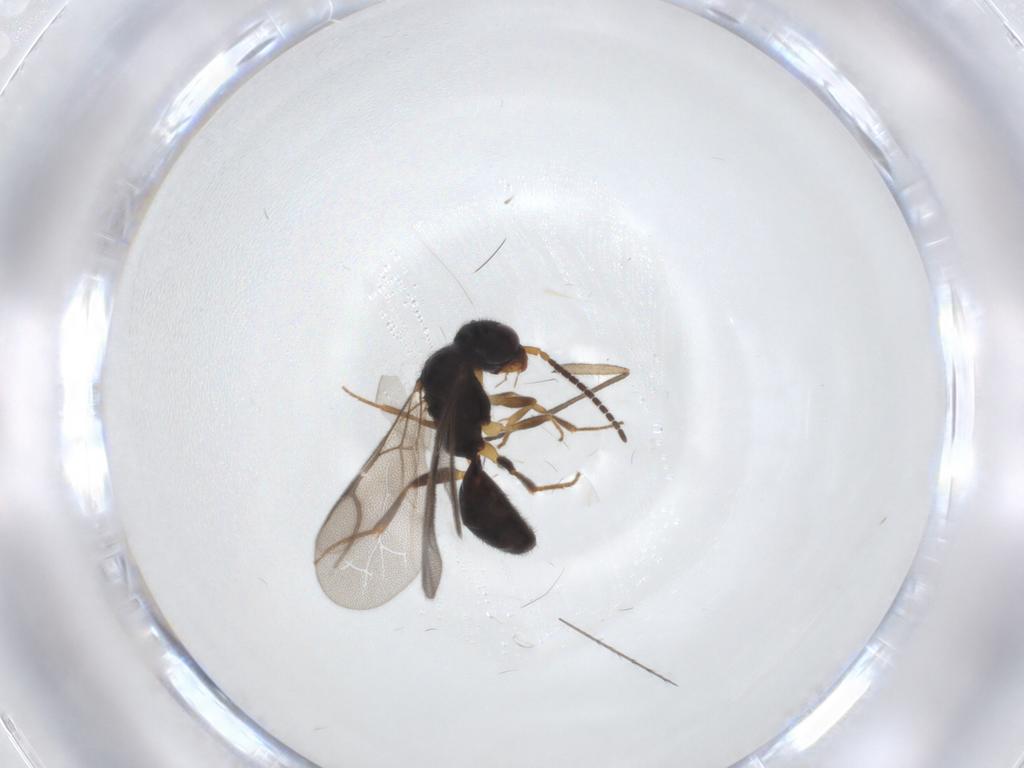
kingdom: Animalia
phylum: Arthropoda
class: Insecta
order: Hymenoptera
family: Bethylidae
